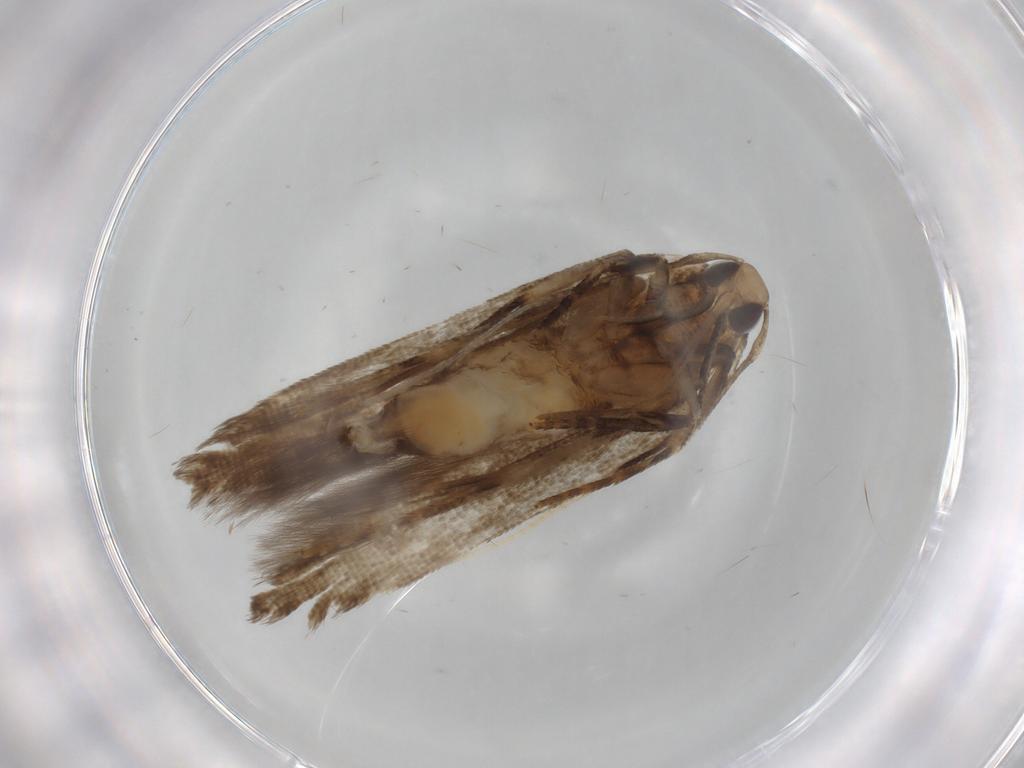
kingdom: Animalia
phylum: Arthropoda
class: Insecta
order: Lepidoptera
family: Autostichidae
